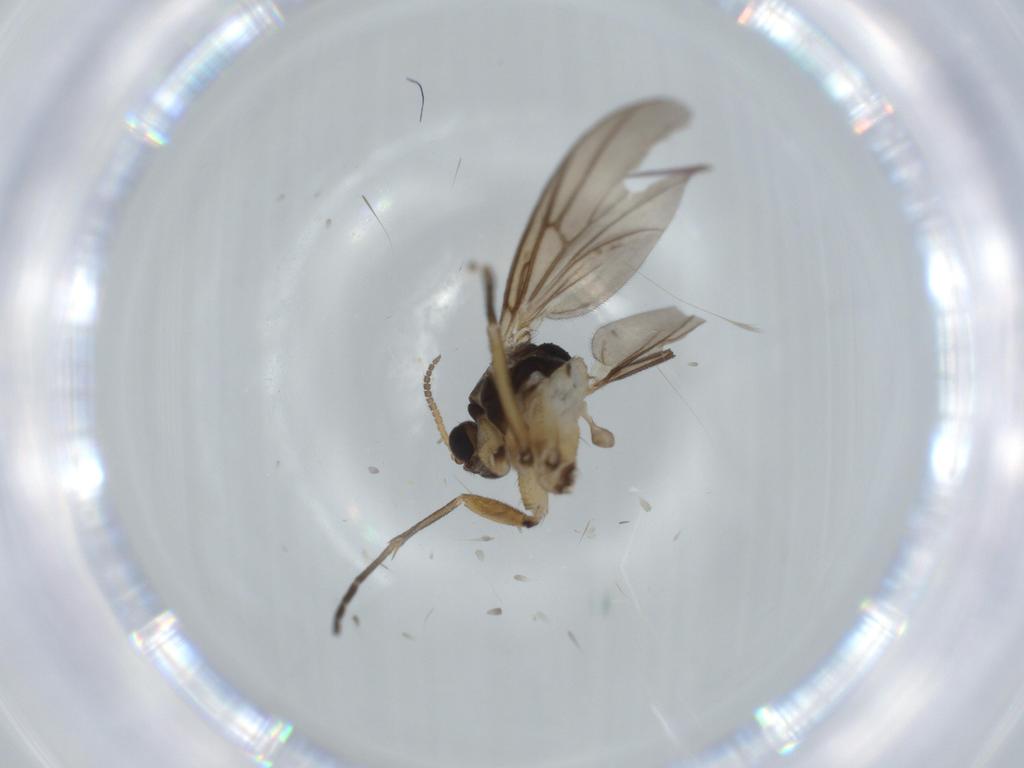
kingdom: Animalia
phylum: Arthropoda
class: Insecta
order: Diptera
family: Mycetophilidae
